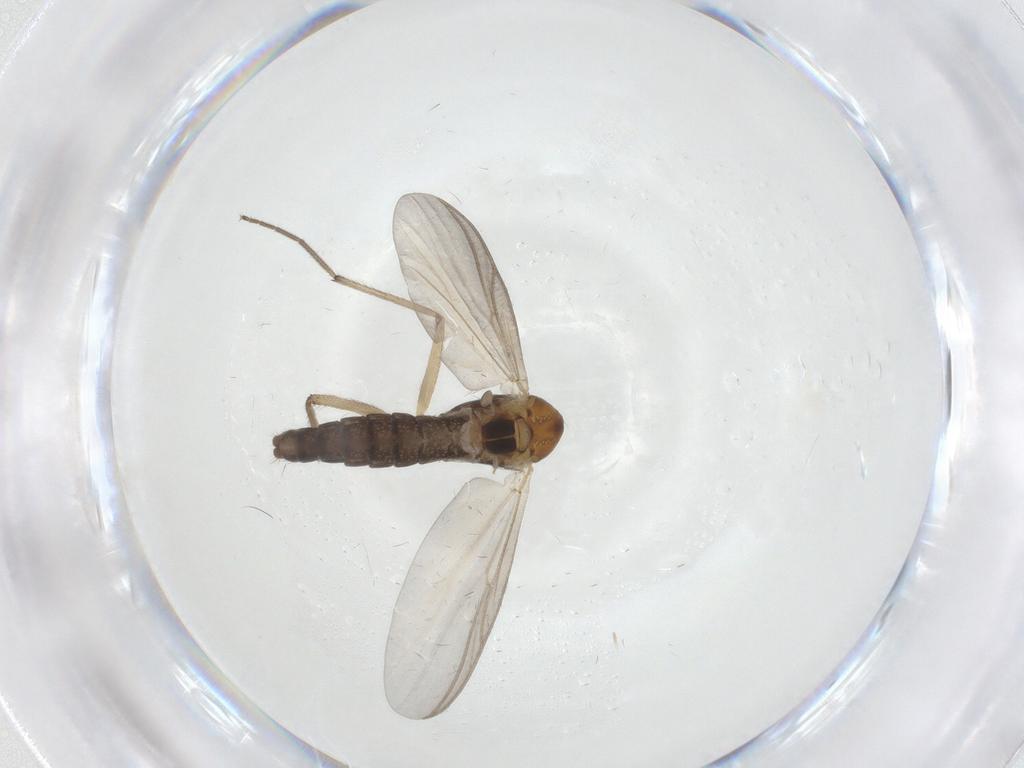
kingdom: Animalia
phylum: Arthropoda
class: Insecta
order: Diptera
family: Chironomidae
